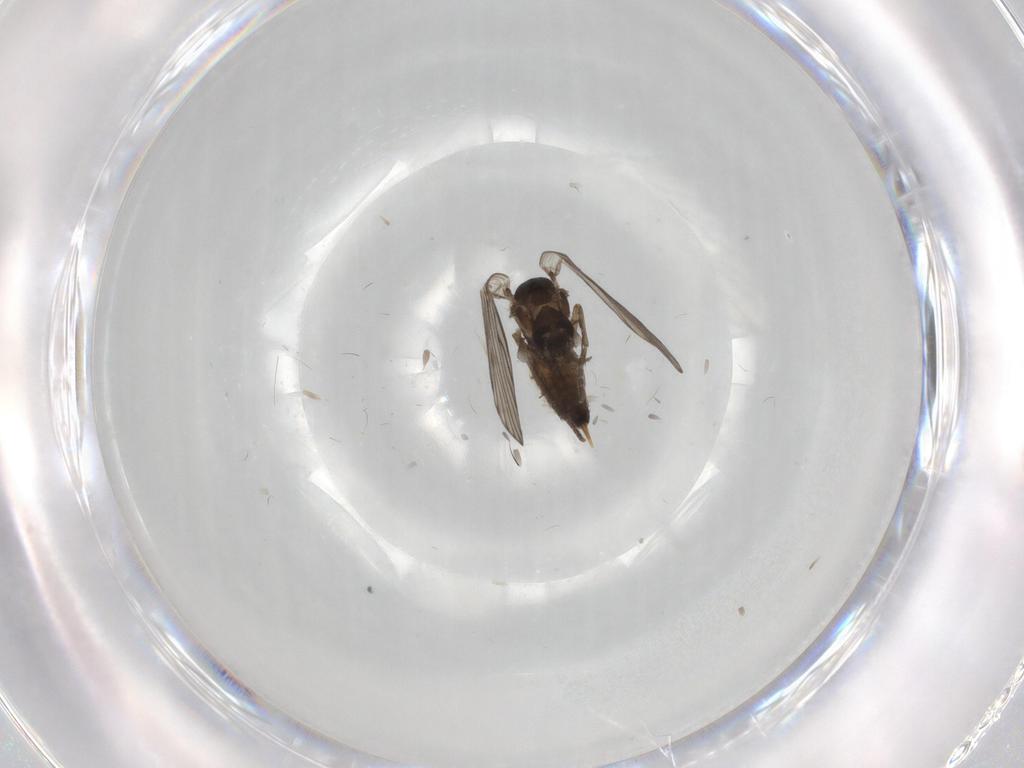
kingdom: Animalia
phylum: Arthropoda
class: Insecta
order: Diptera
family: Psychodidae
